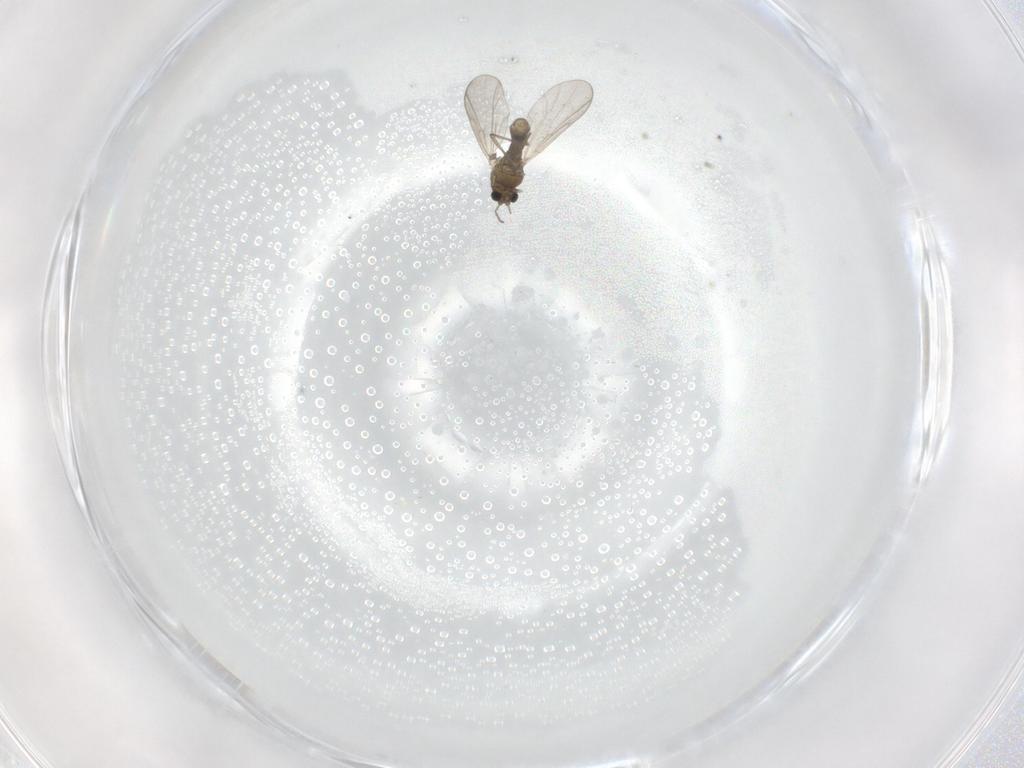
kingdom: Animalia
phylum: Arthropoda
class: Insecta
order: Diptera
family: Chironomidae
